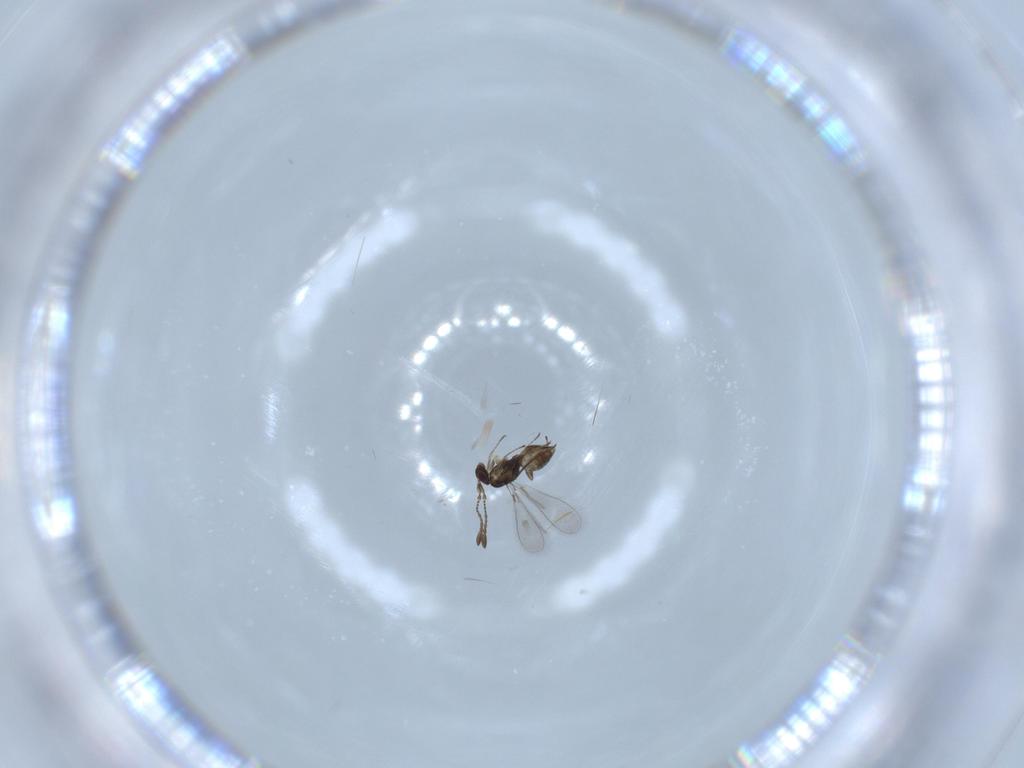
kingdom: Animalia
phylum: Arthropoda
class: Insecta
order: Hymenoptera
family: Mymaridae
